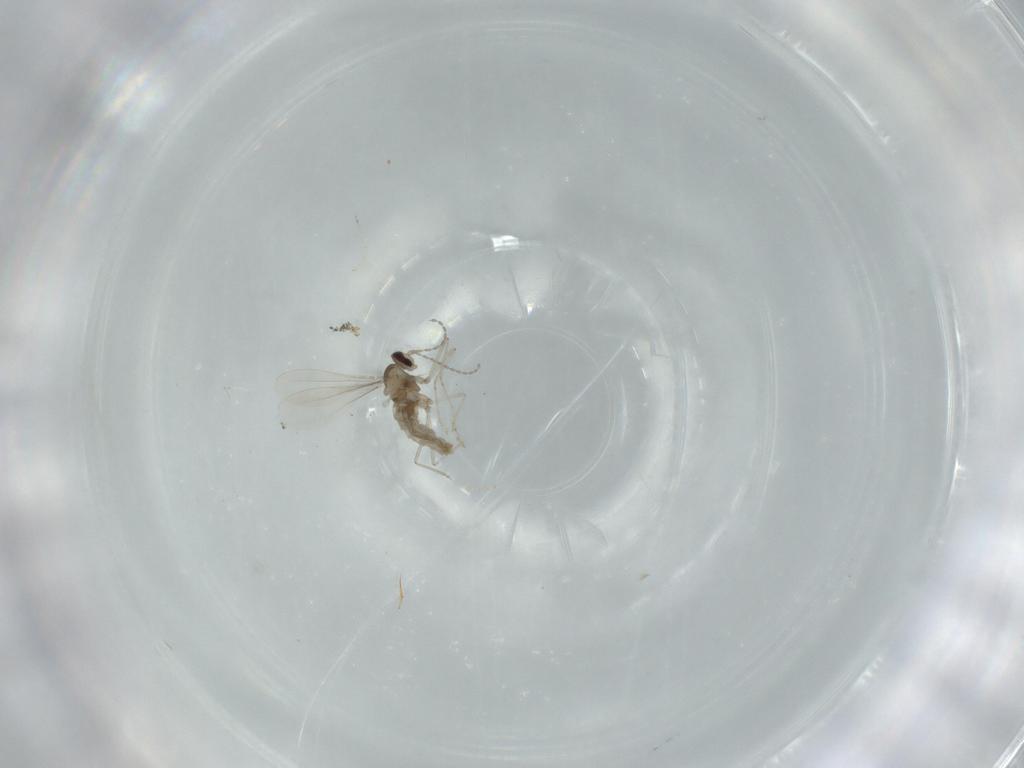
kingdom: Animalia
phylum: Arthropoda
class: Insecta
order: Diptera
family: Cecidomyiidae
